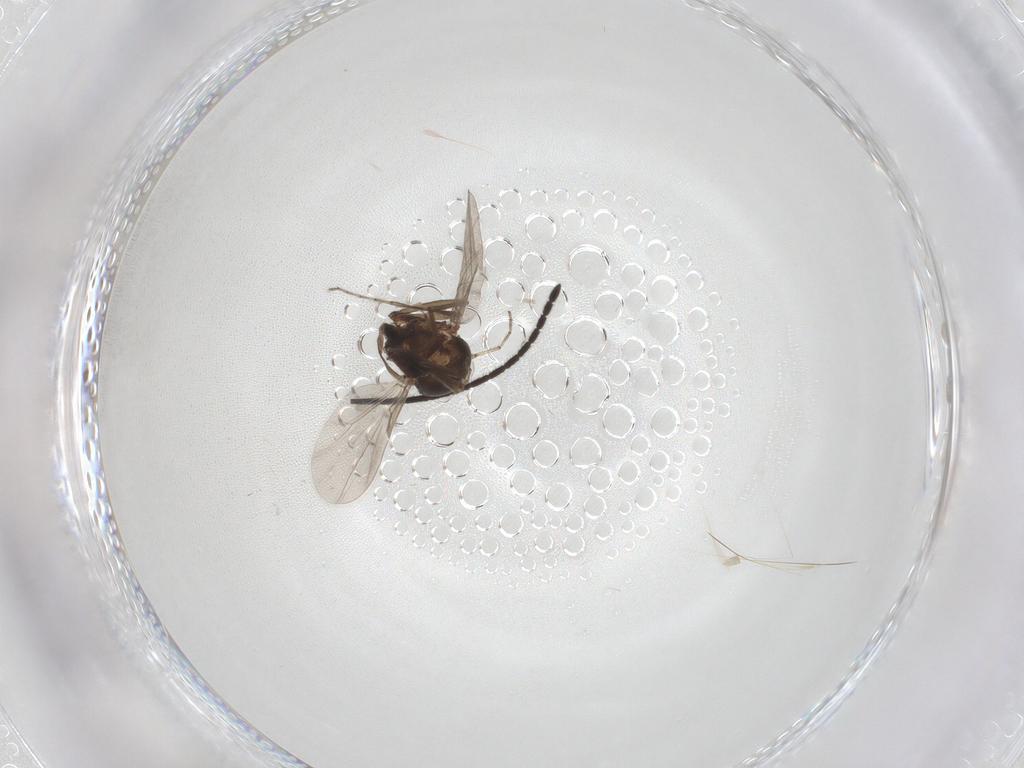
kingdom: Animalia
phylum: Arthropoda
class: Insecta
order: Diptera
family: Ceratopogonidae
